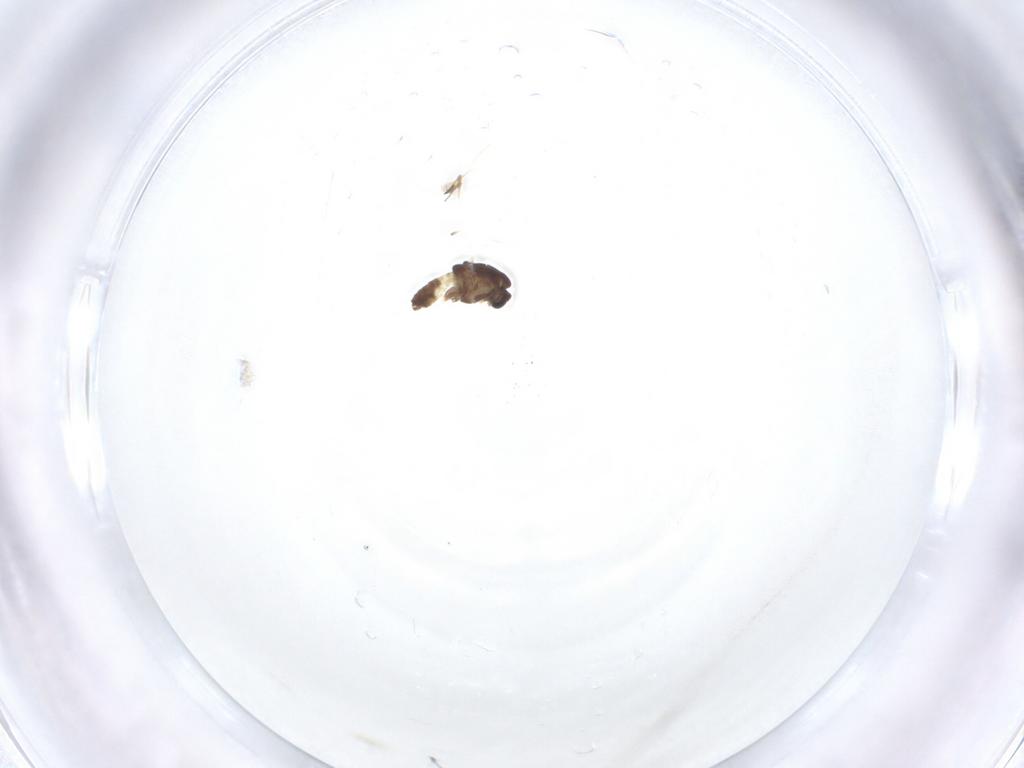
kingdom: Animalia
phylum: Arthropoda
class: Insecta
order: Diptera
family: Chironomidae
